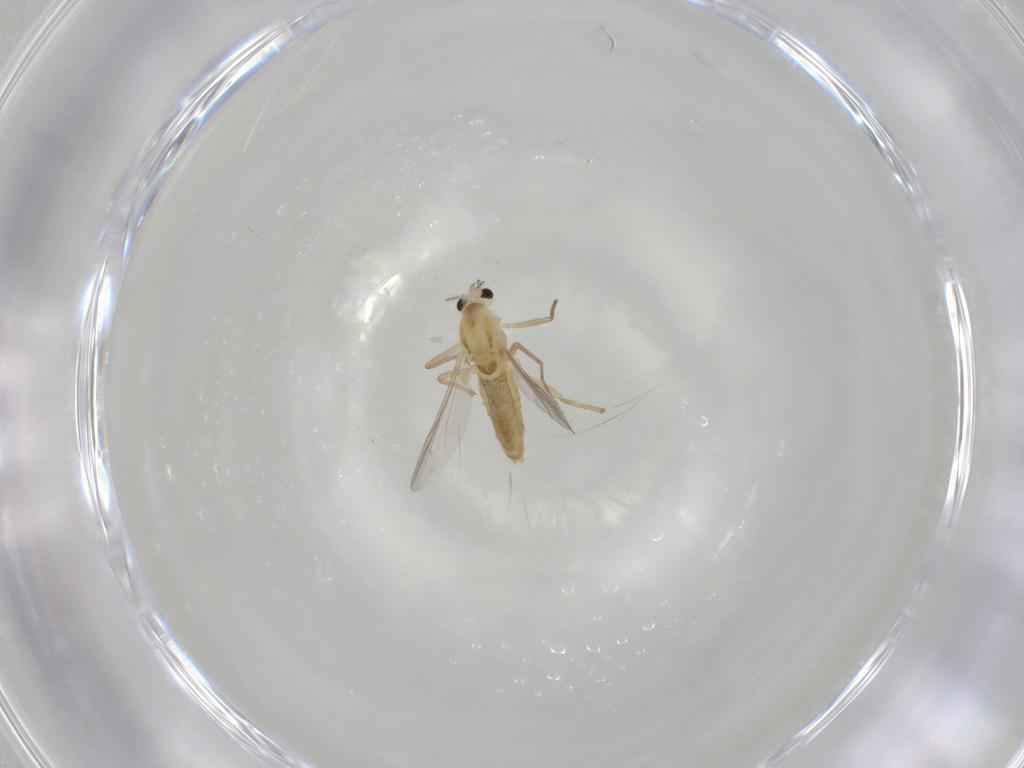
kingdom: Animalia
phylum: Arthropoda
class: Insecta
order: Diptera
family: Chironomidae
